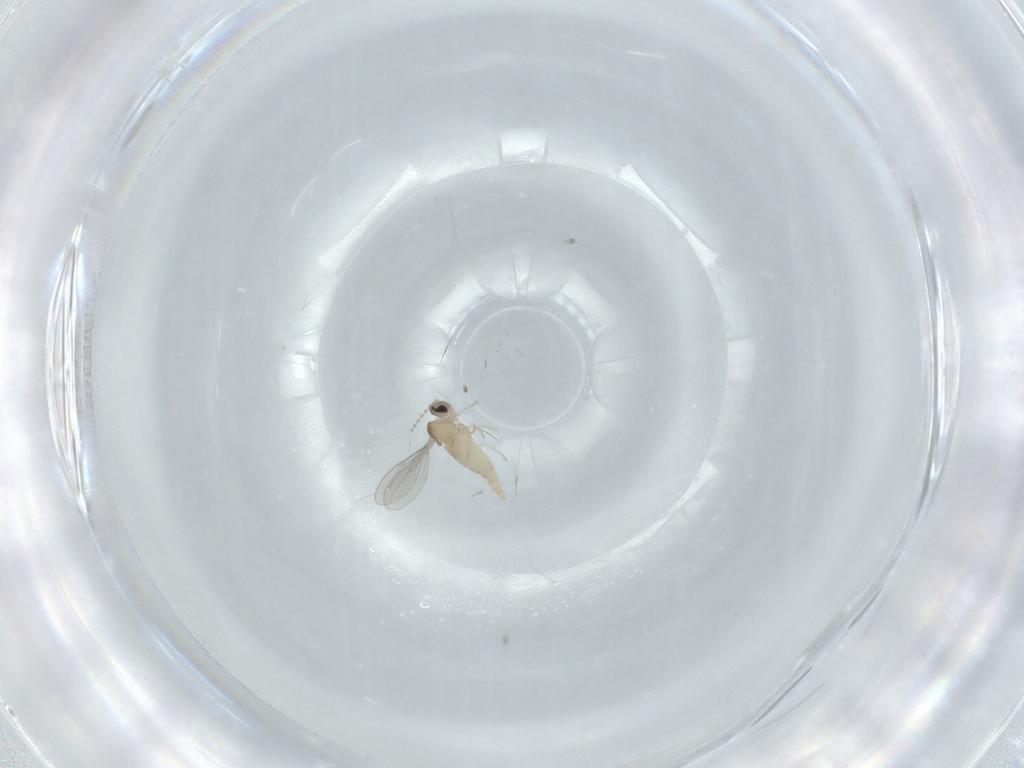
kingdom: Animalia
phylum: Arthropoda
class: Insecta
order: Diptera
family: Cecidomyiidae
